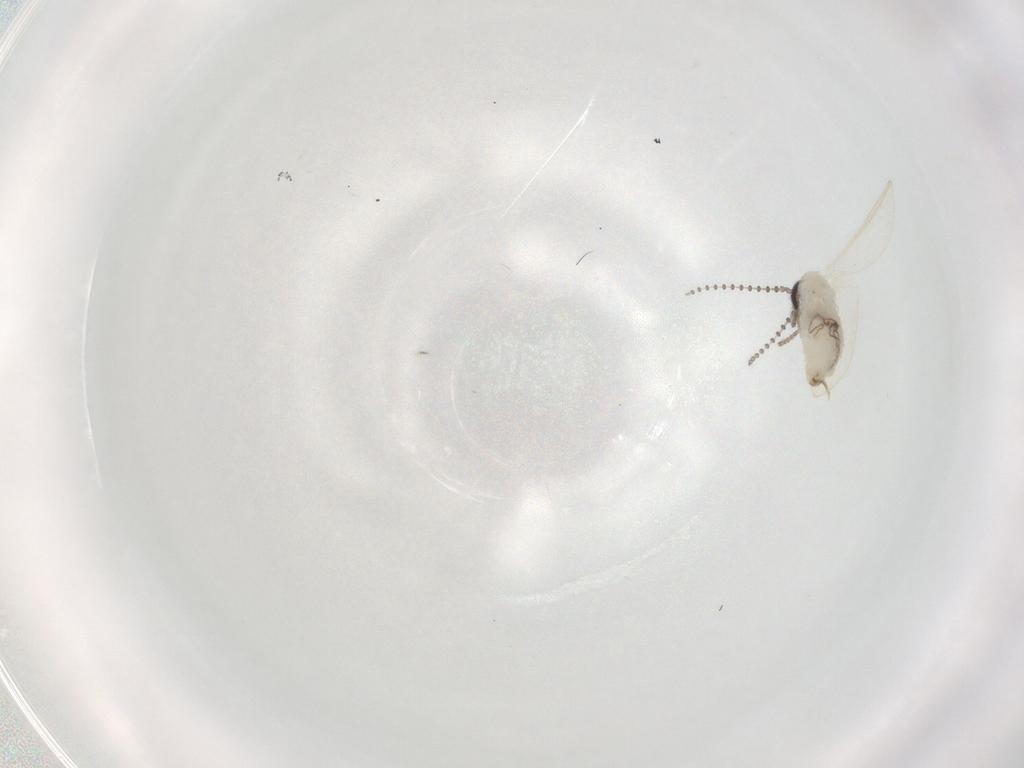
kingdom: Animalia
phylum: Arthropoda
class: Insecta
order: Diptera
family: Psychodidae
